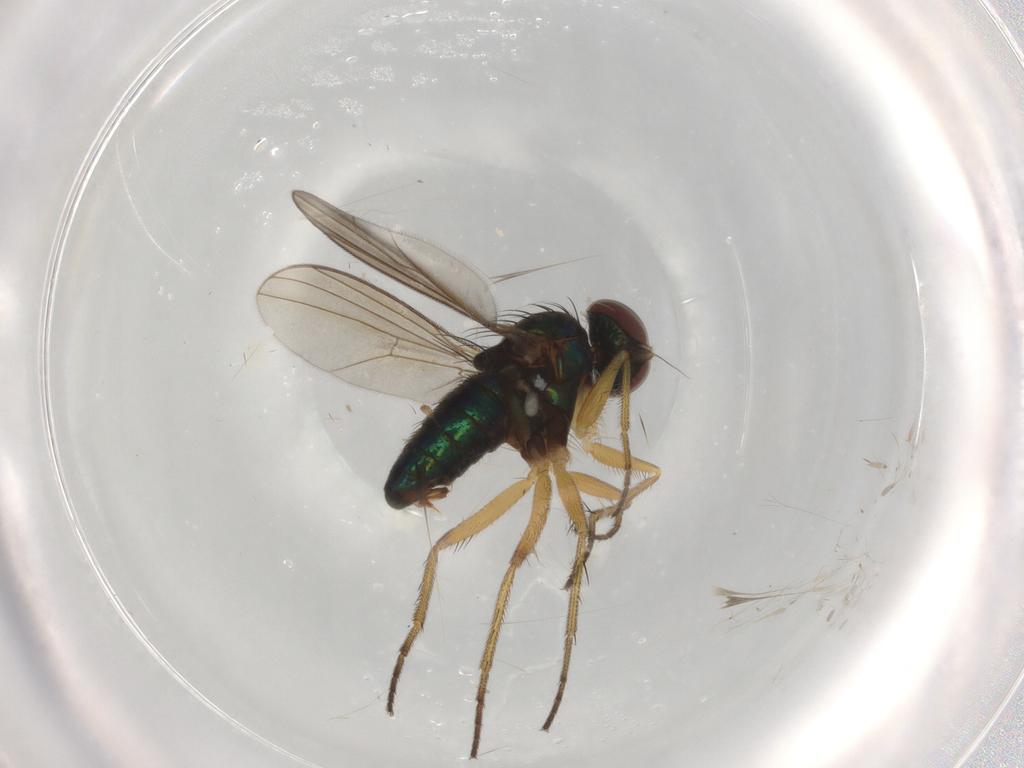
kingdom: Animalia
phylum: Arthropoda
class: Insecta
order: Diptera
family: Dolichopodidae
